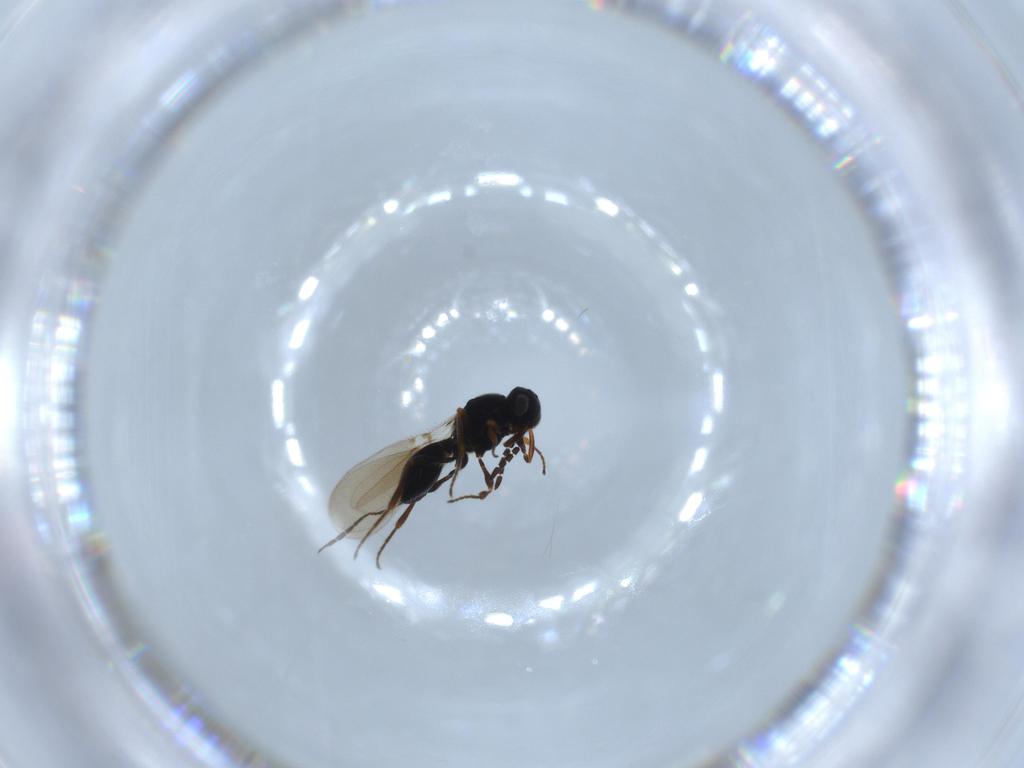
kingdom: Animalia
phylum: Arthropoda
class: Insecta
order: Hymenoptera
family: Platygastridae
